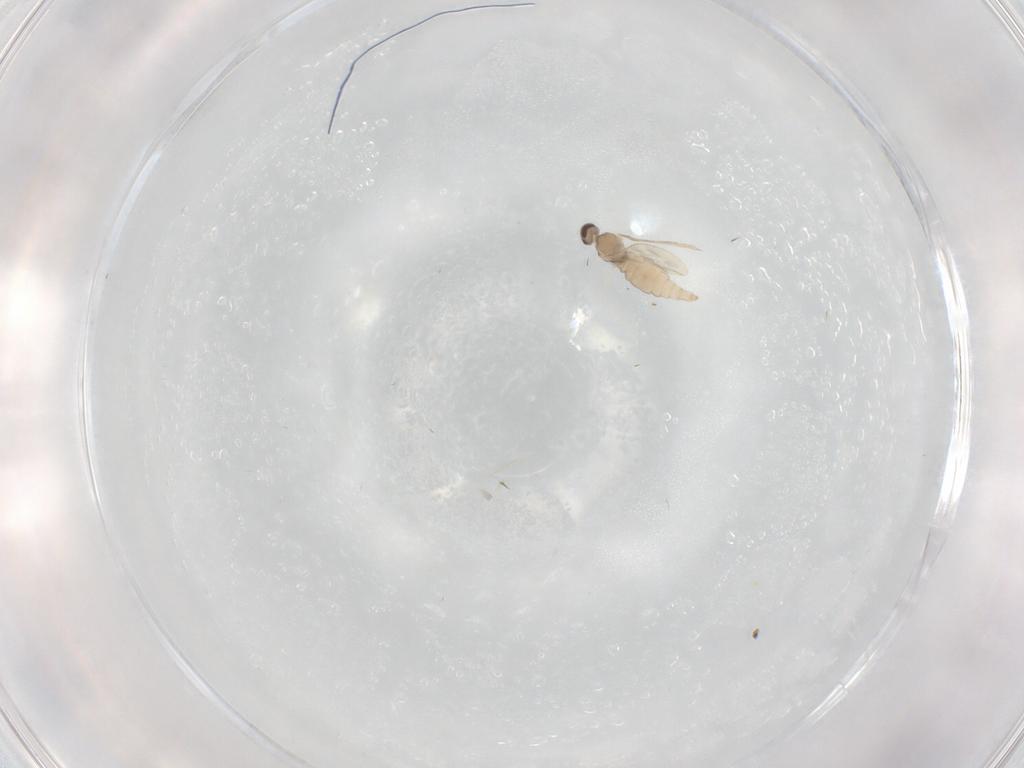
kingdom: Animalia
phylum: Arthropoda
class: Insecta
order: Diptera
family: Cecidomyiidae
